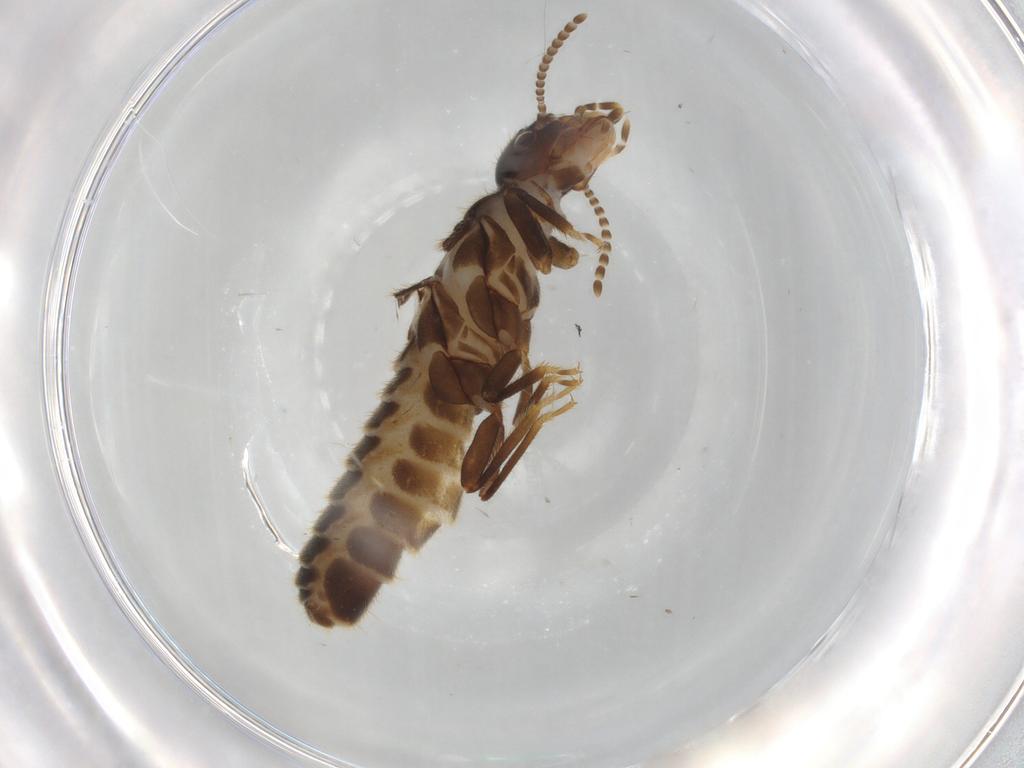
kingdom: Animalia
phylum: Arthropoda
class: Insecta
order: Blattodea
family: Termitidae
